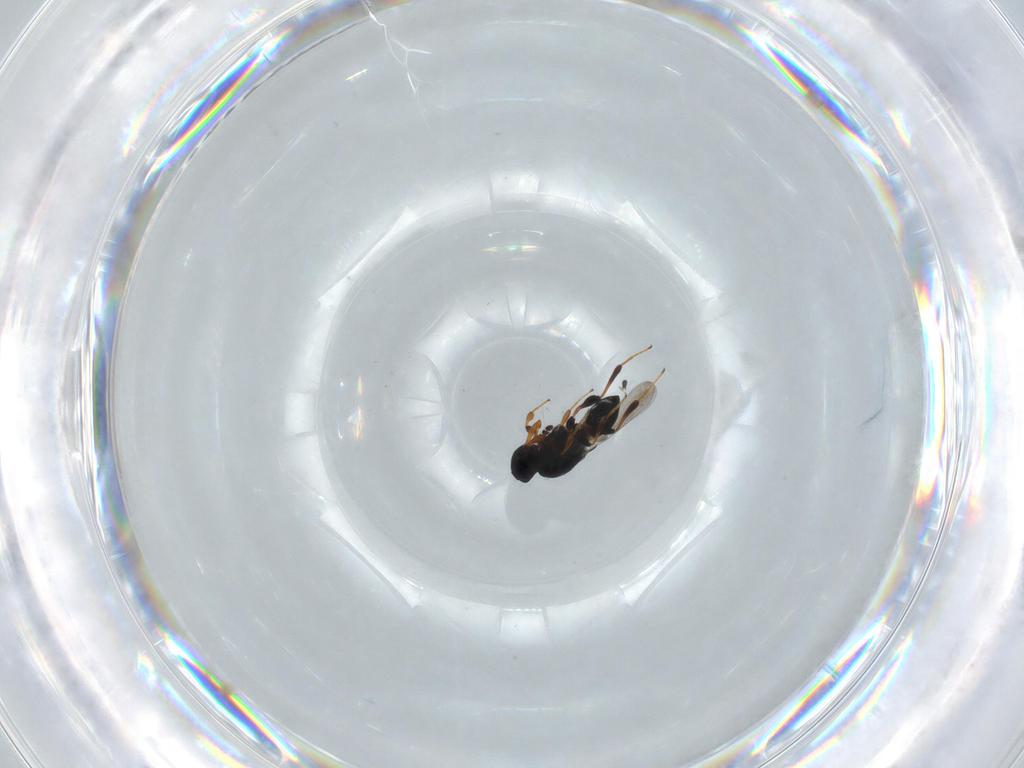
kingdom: Animalia
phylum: Arthropoda
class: Insecta
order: Hymenoptera
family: Platygastridae
